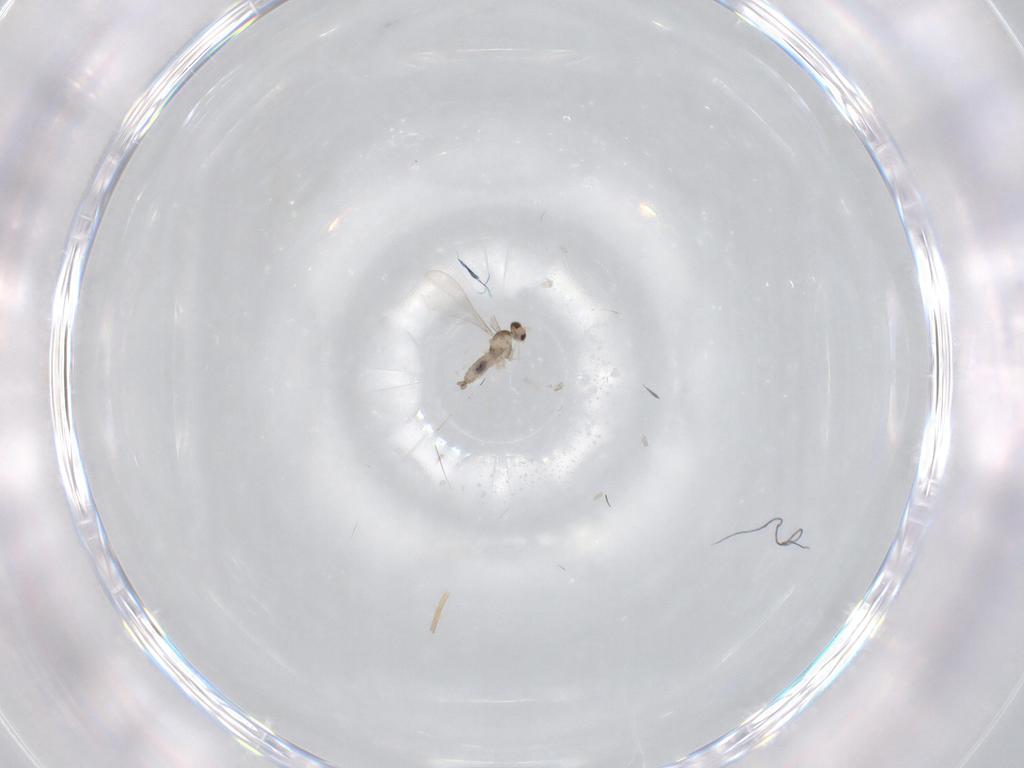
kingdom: Animalia
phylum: Arthropoda
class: Insecta
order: Diptera
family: Cecidomyiidae
